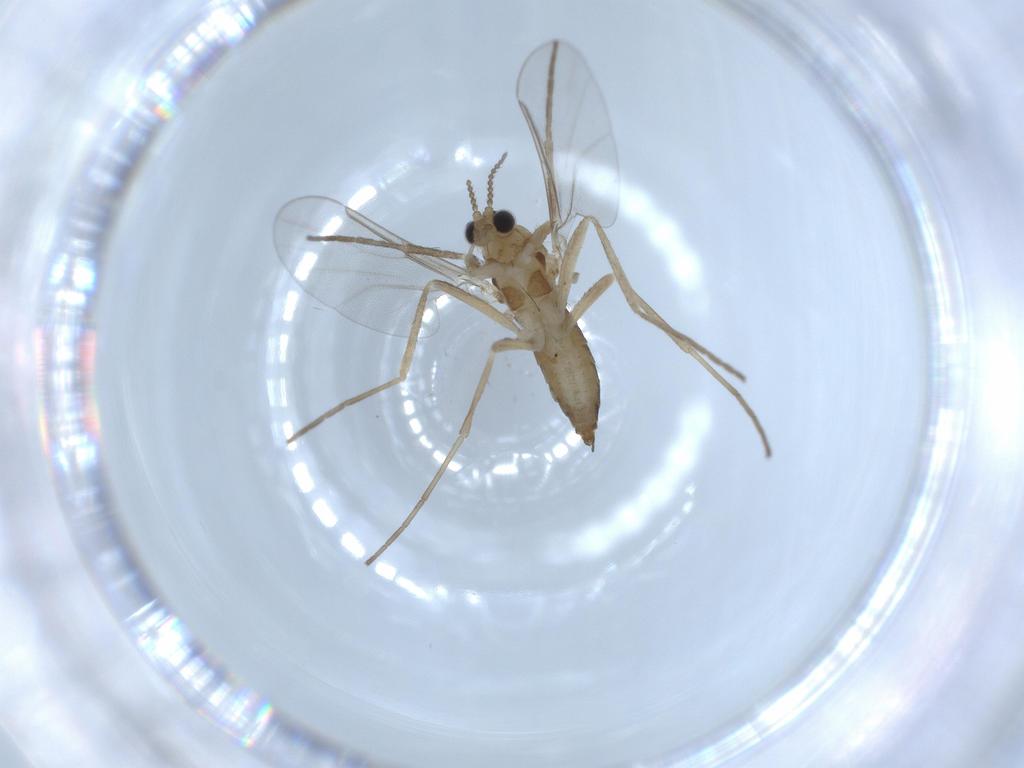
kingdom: Animalia
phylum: Arthropoda
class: Insecta
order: Diptera
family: Cecidomyiidae
